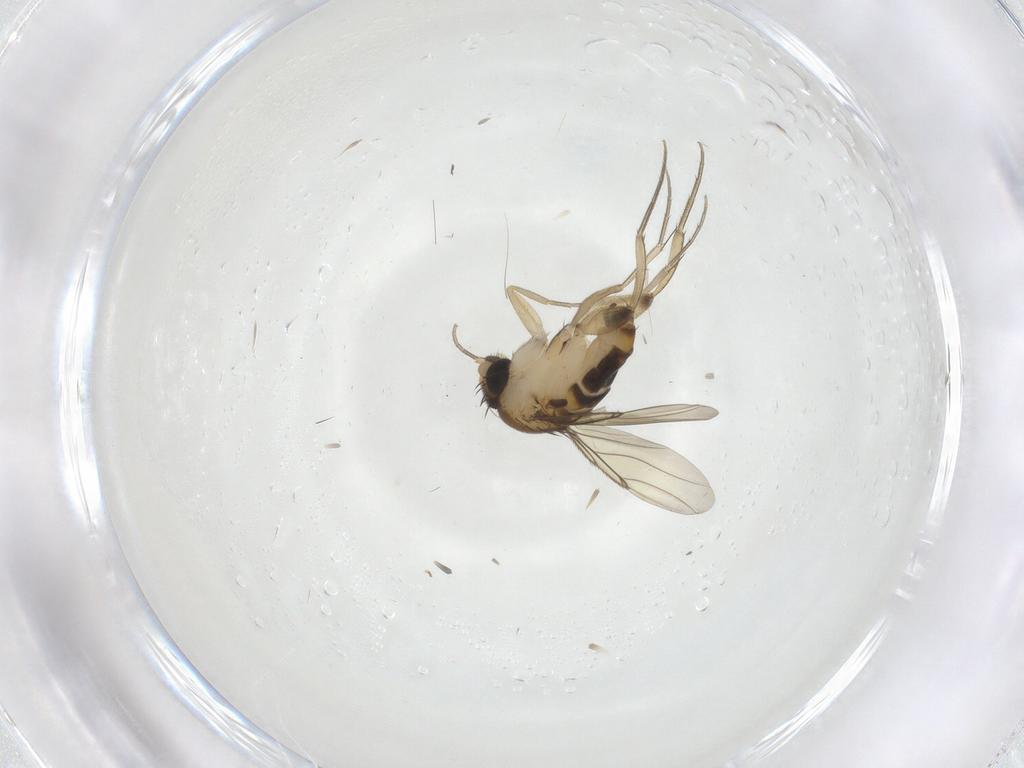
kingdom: Animalia
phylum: Arthropoda
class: Insecta
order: Diptera
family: Phoridae
